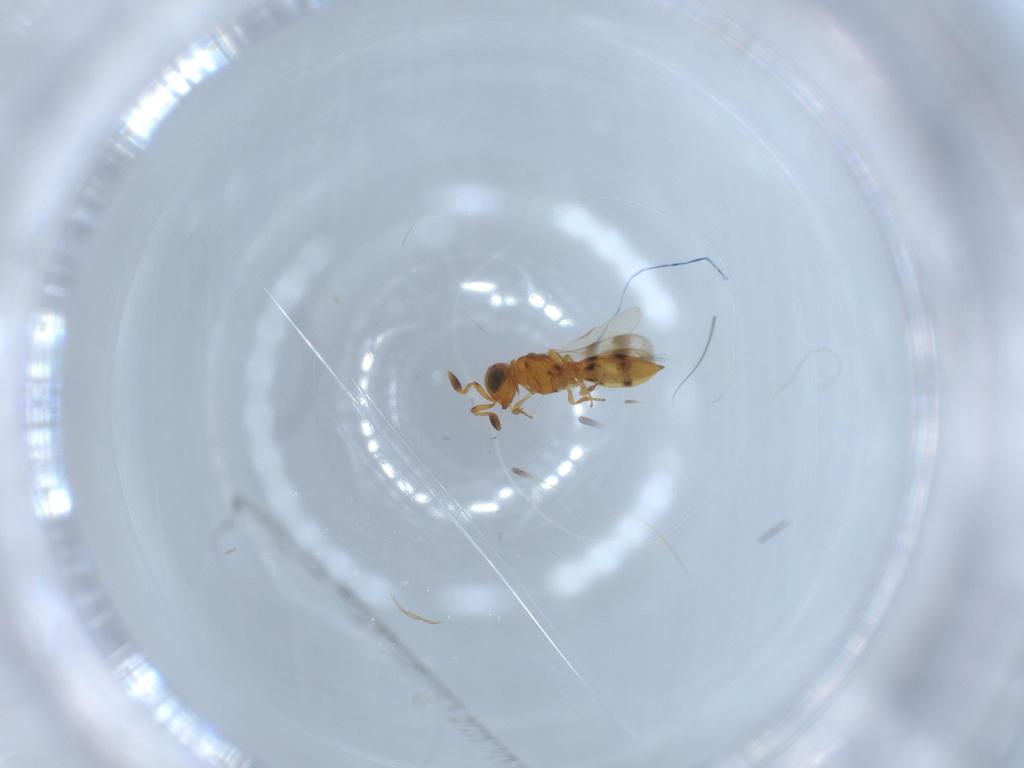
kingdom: Animalia
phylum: Arthropoda
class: Insecta
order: Hymenoptera
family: Scelionidae
